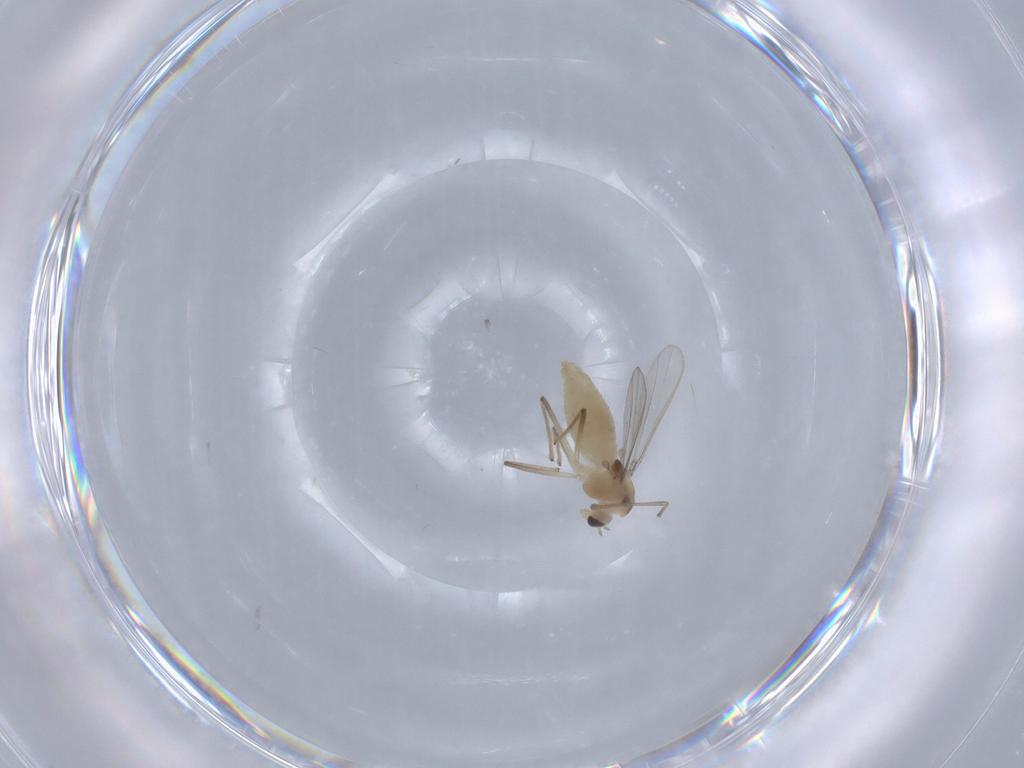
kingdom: Animalia
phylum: Arthropoda
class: Insecta
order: Diptera
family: Chironomidae
